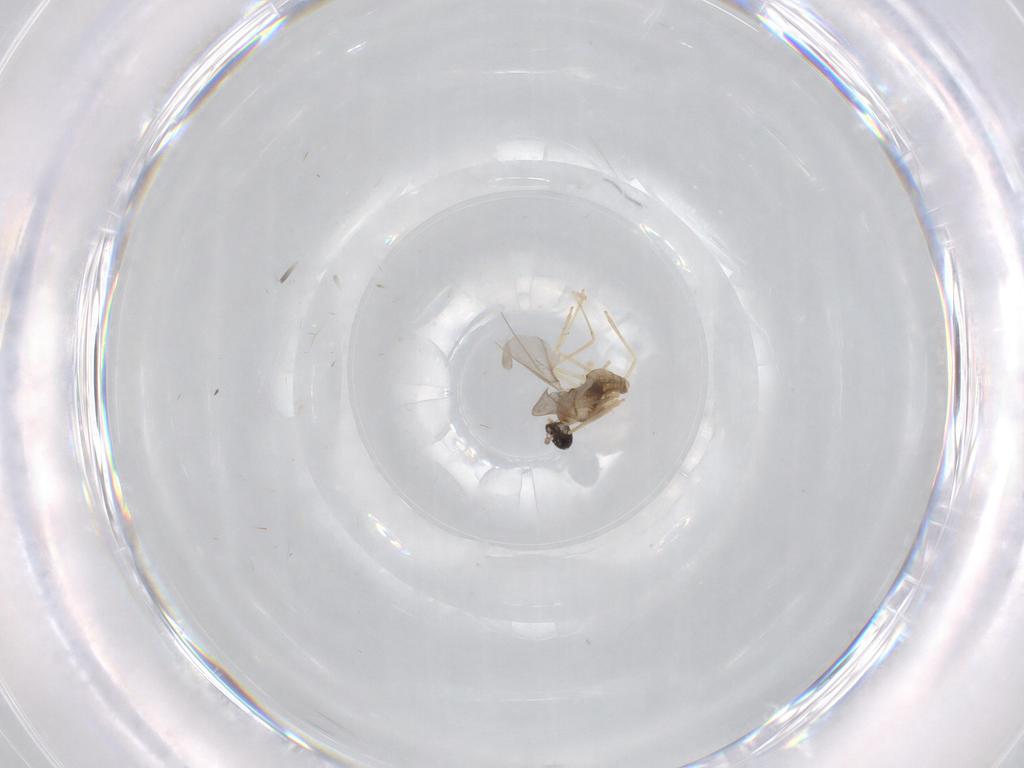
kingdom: Animalia
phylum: Arthropoda
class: Insecta
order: Diptera
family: Cecidomyiidae
